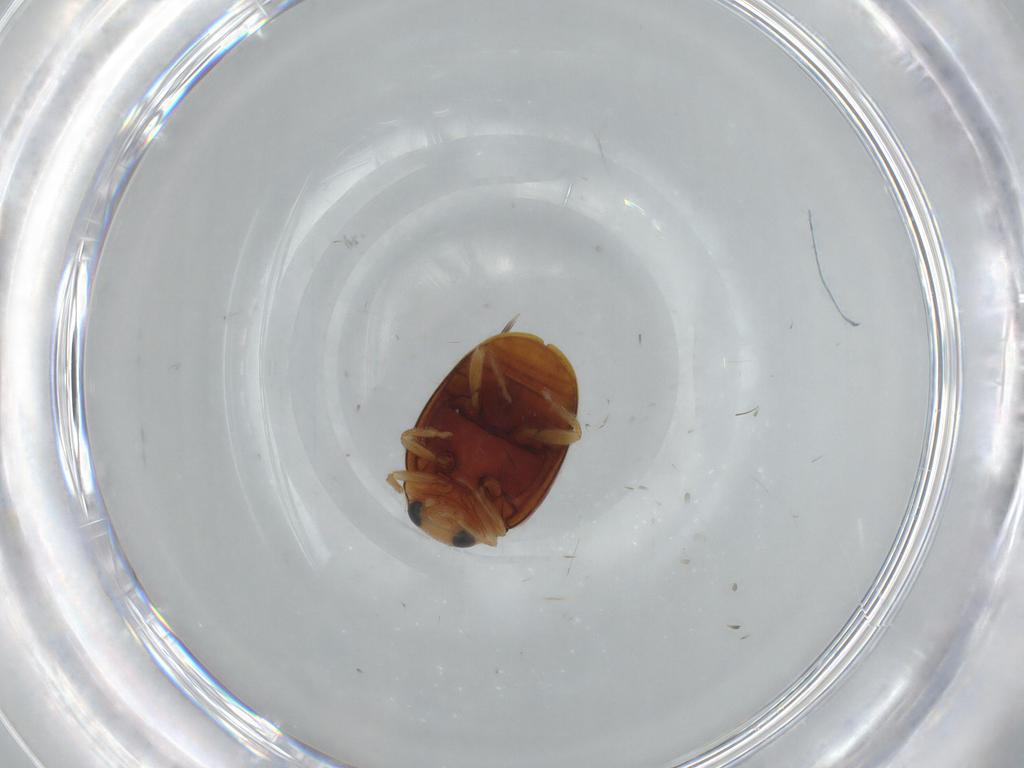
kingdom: Animalia
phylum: Arthropoda
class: Insecta
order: Coleoptera
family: Coccinellidae
